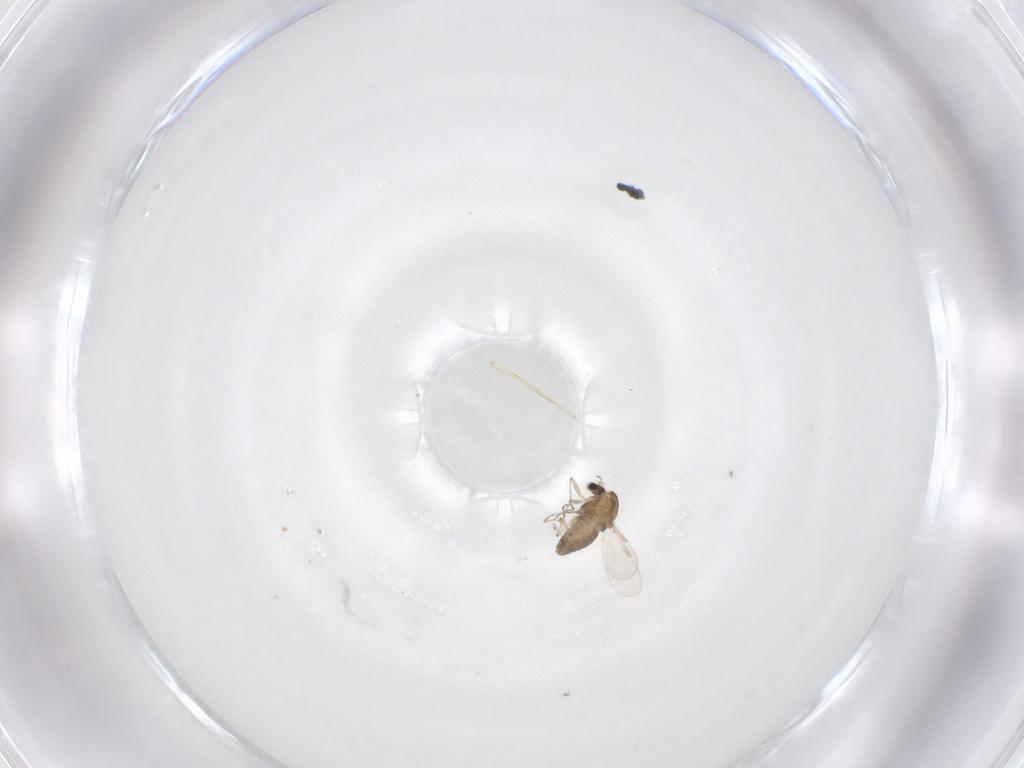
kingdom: Animalia
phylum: Arthropoda
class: Insecta
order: Diptera
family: Chironomidae
